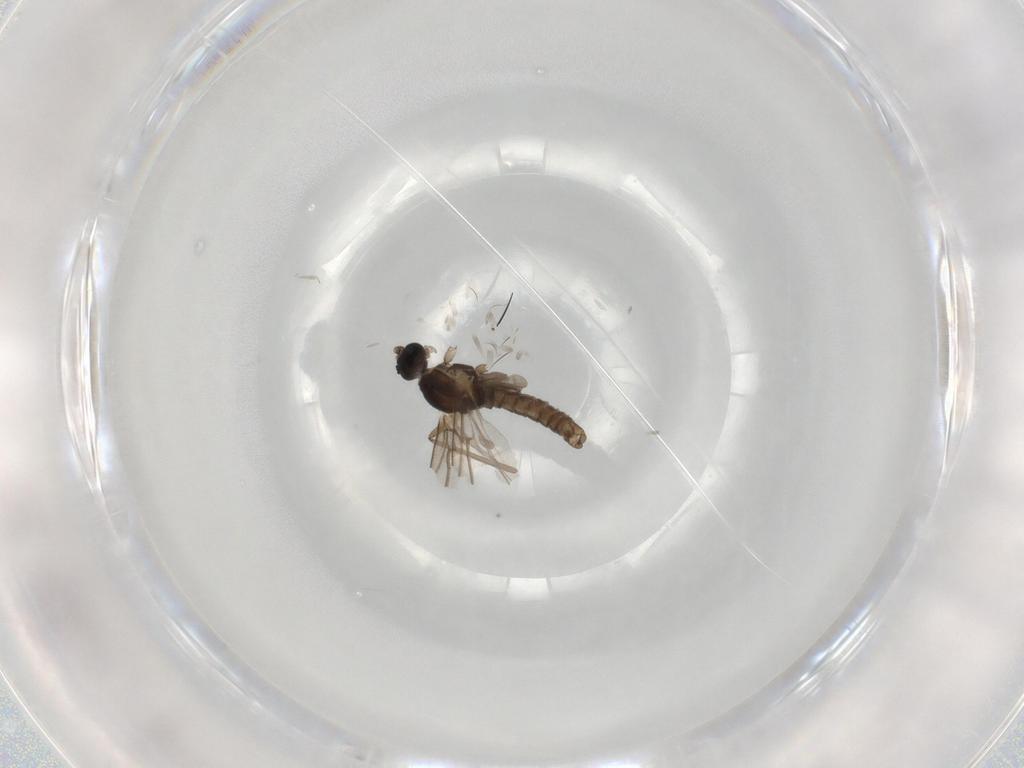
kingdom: Animalia
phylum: Arthropoda
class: Insecta
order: Diptera
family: Cecidomyiidae
